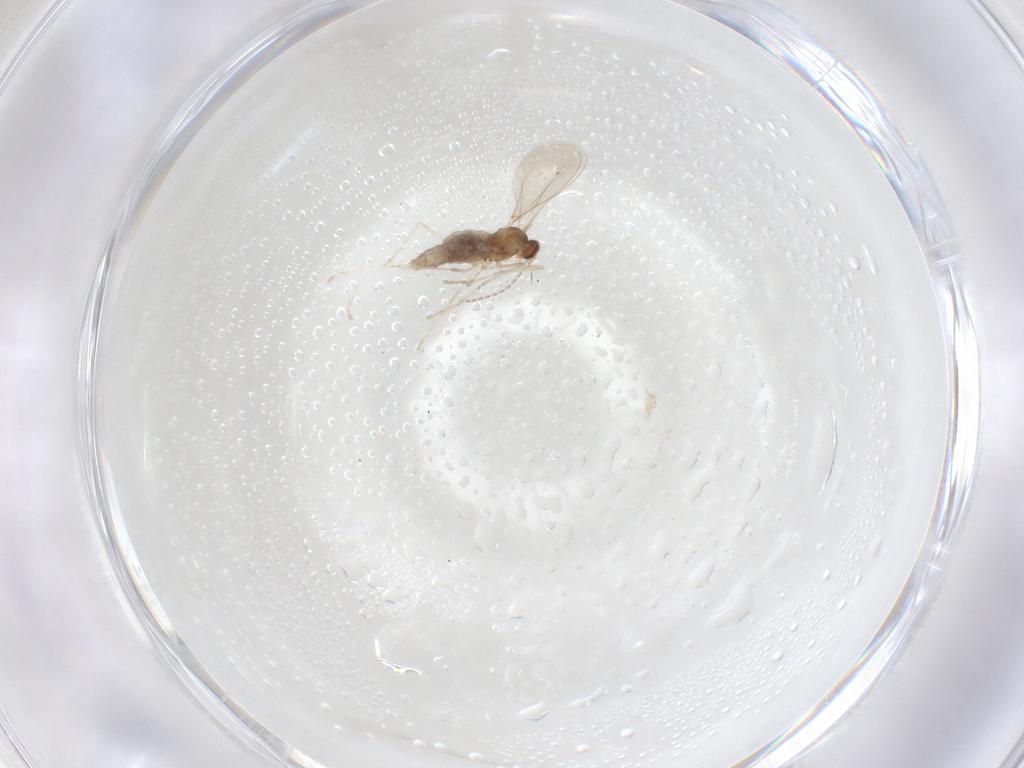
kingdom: Animalia
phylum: Arthropoda
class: Insecta
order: Diptera
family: Cecidomyiidae
